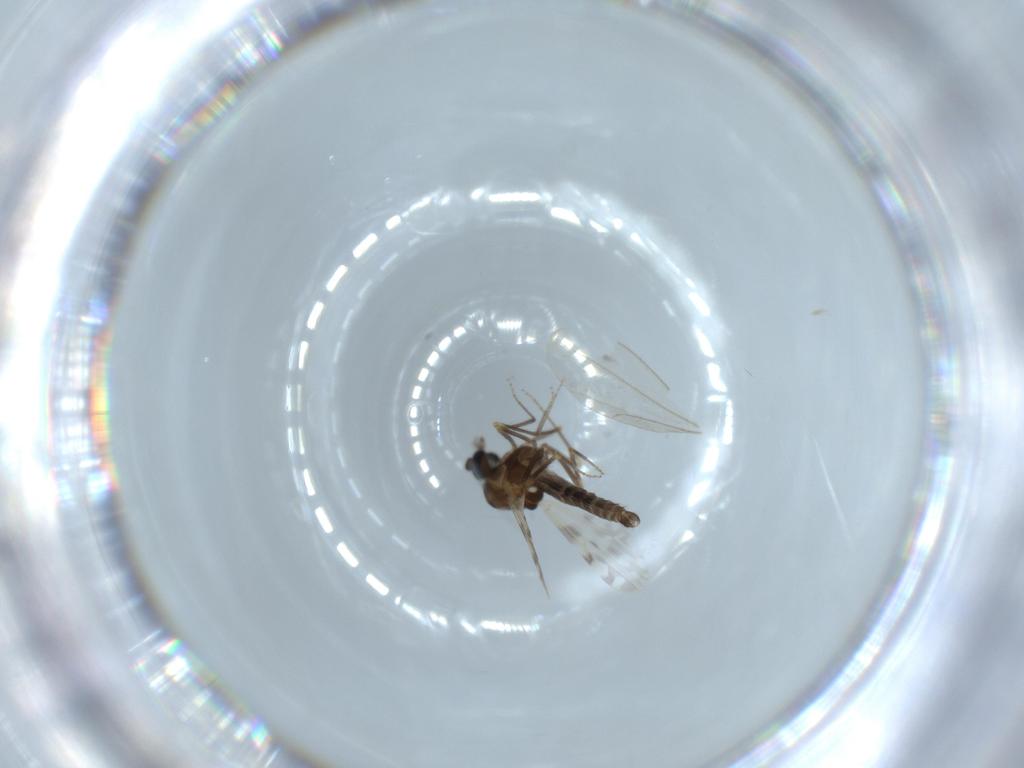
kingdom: Animalia
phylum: Arthropoda
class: Insecta
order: Diptera
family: Ceratopogonidae
